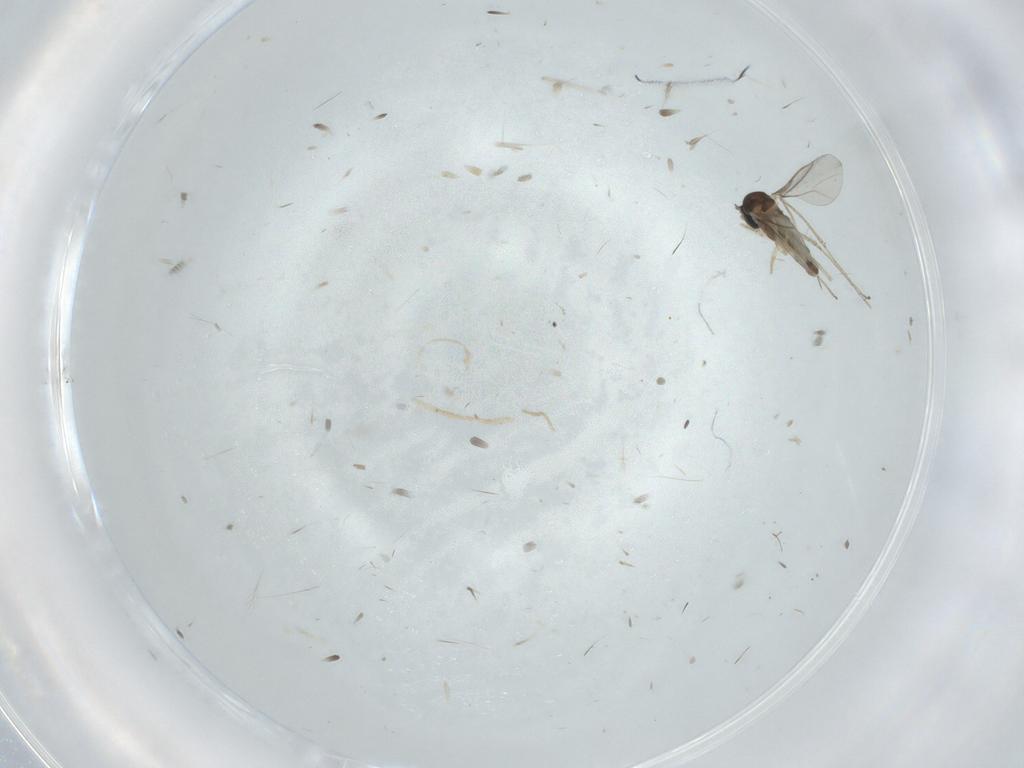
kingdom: Animalia
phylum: Arthropoda
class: Insecta
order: Diptera
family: Cecidomyiidae
